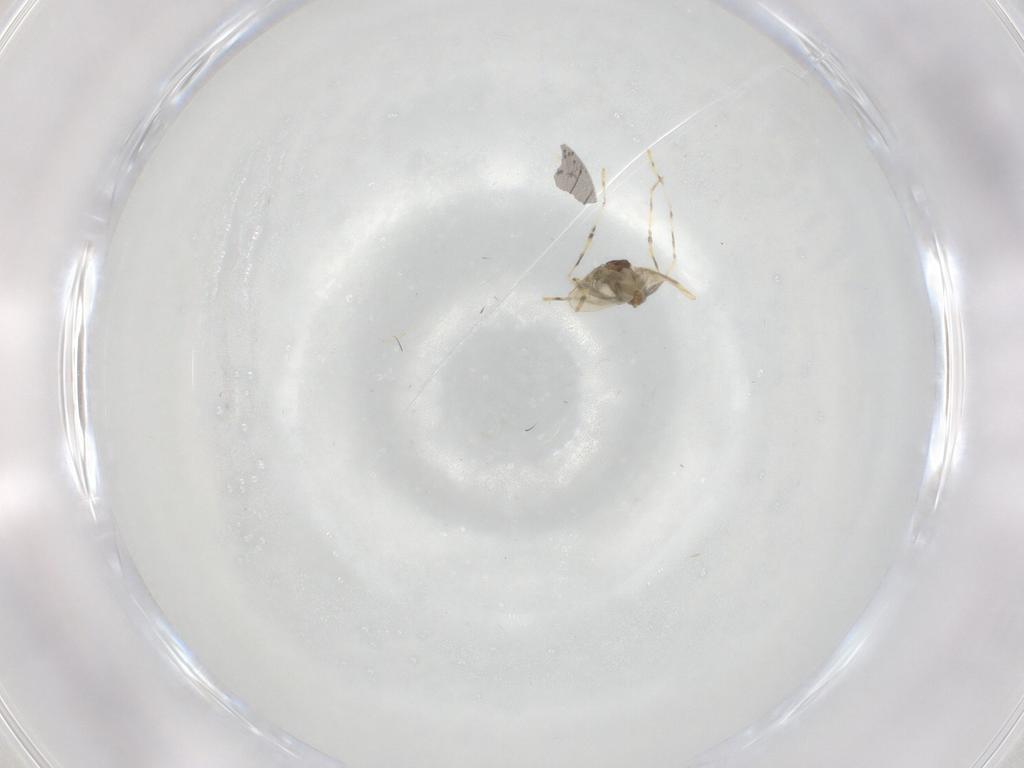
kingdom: Animalia
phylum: Arthropoda
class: Insecta
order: Diptera
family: Cecidomyiidae
